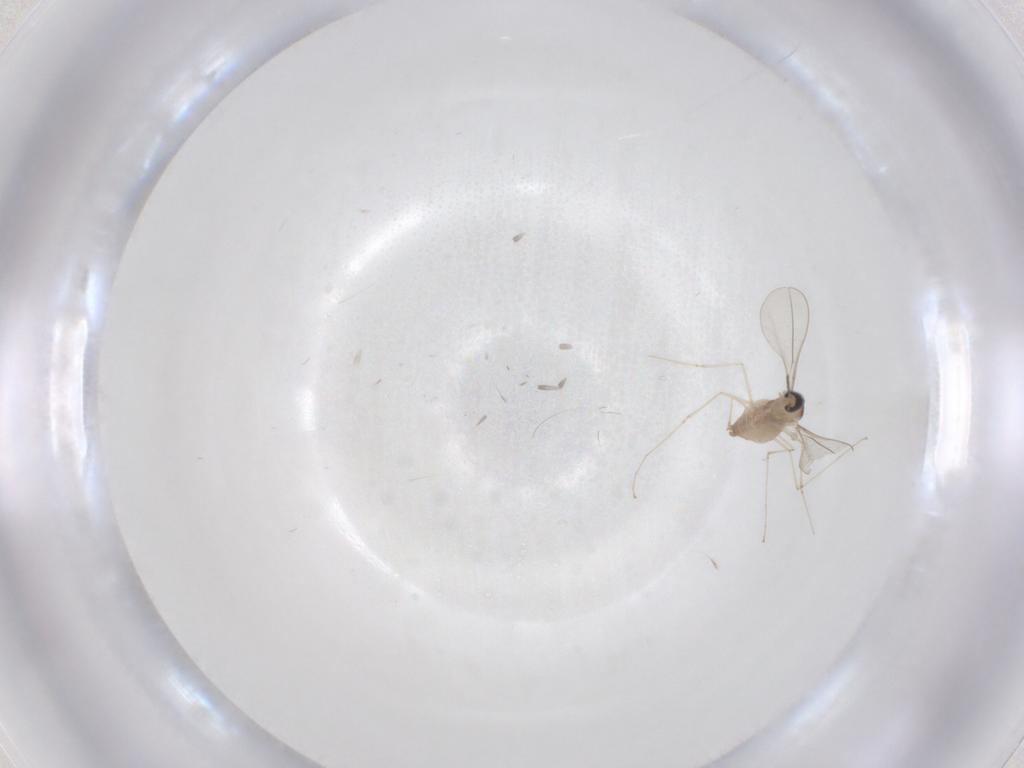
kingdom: Animalia
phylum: Arthropoda
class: Insecta
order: Diptera
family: Cecidomyiidae
